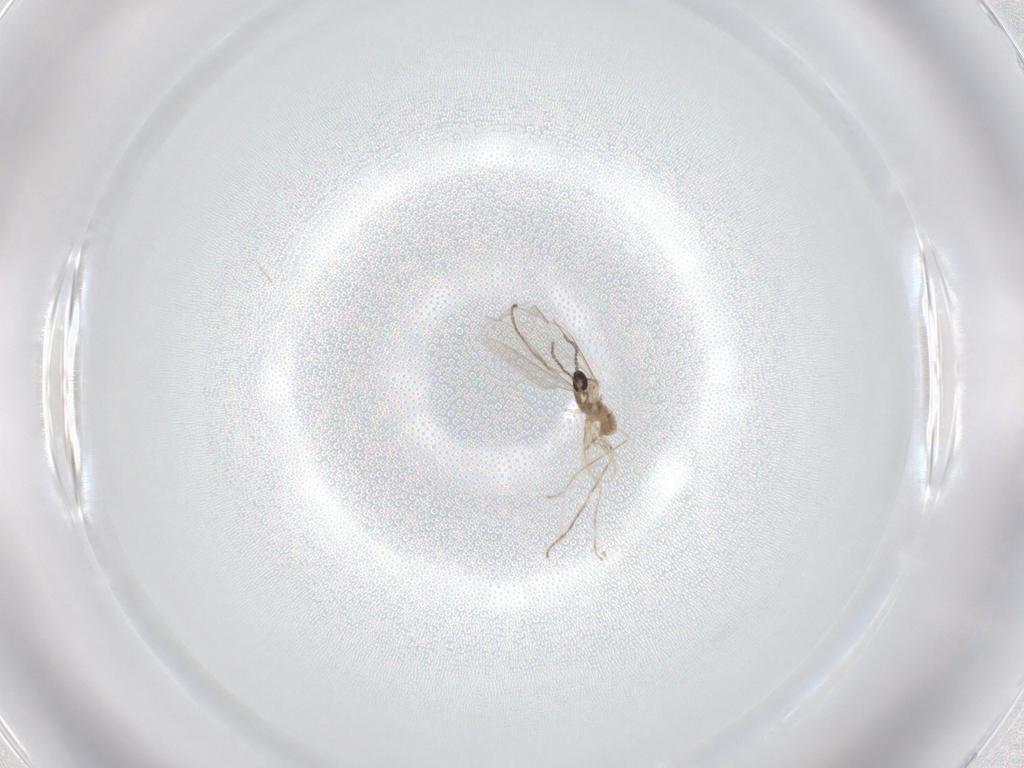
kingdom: Animalia
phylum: Arthropoda
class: Insecta
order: Diptera
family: Cecidomyiidae
